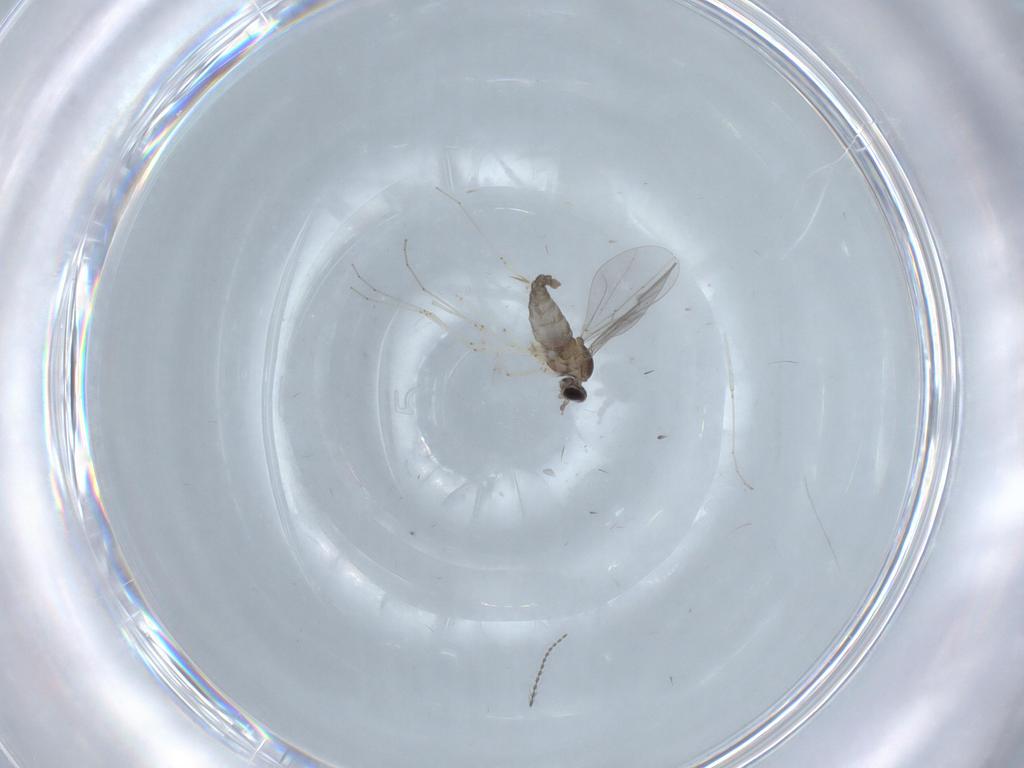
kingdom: Animalia
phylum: Arthropoda
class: Insecta
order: Diptera
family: Cecidomyiidae
